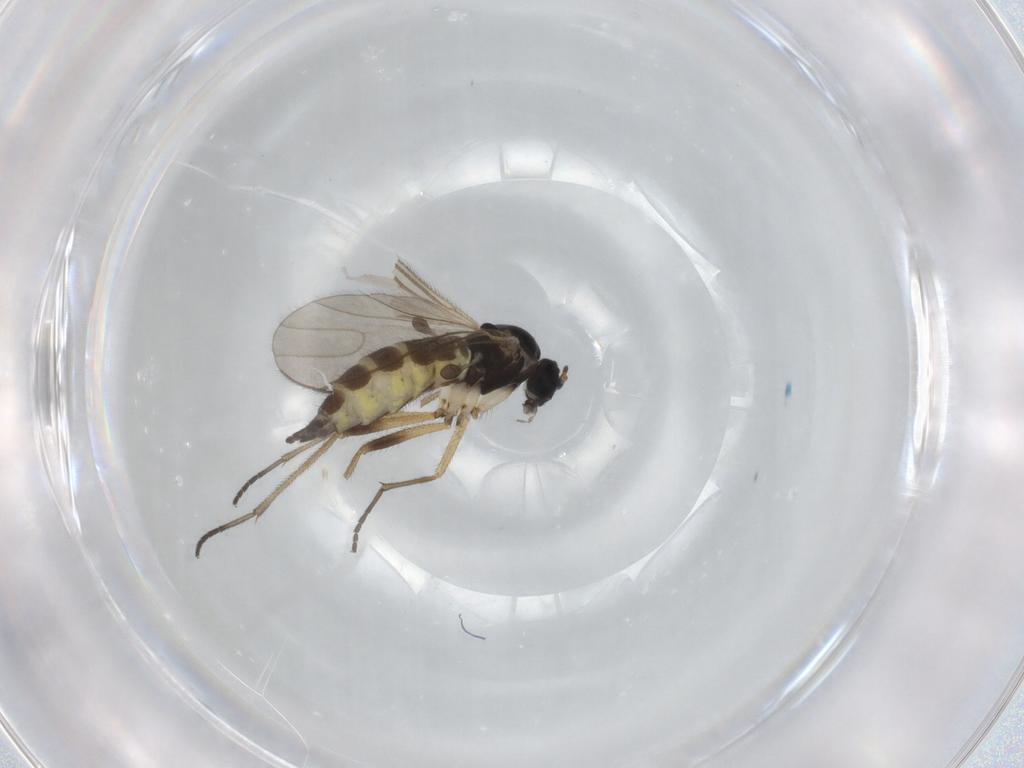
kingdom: Animalia
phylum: Arthropoda
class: Insecta
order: Diptera
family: Sciaridae
